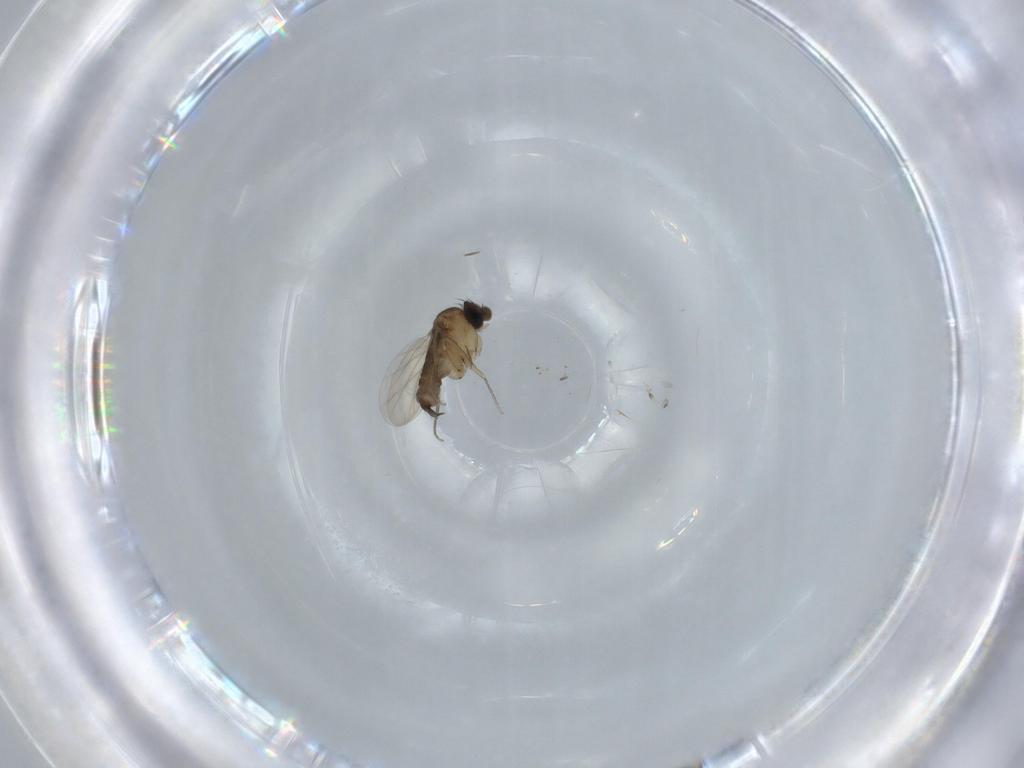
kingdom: Animalia
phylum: Arthropoda
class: Insecta
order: Diptera
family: Phoridae
